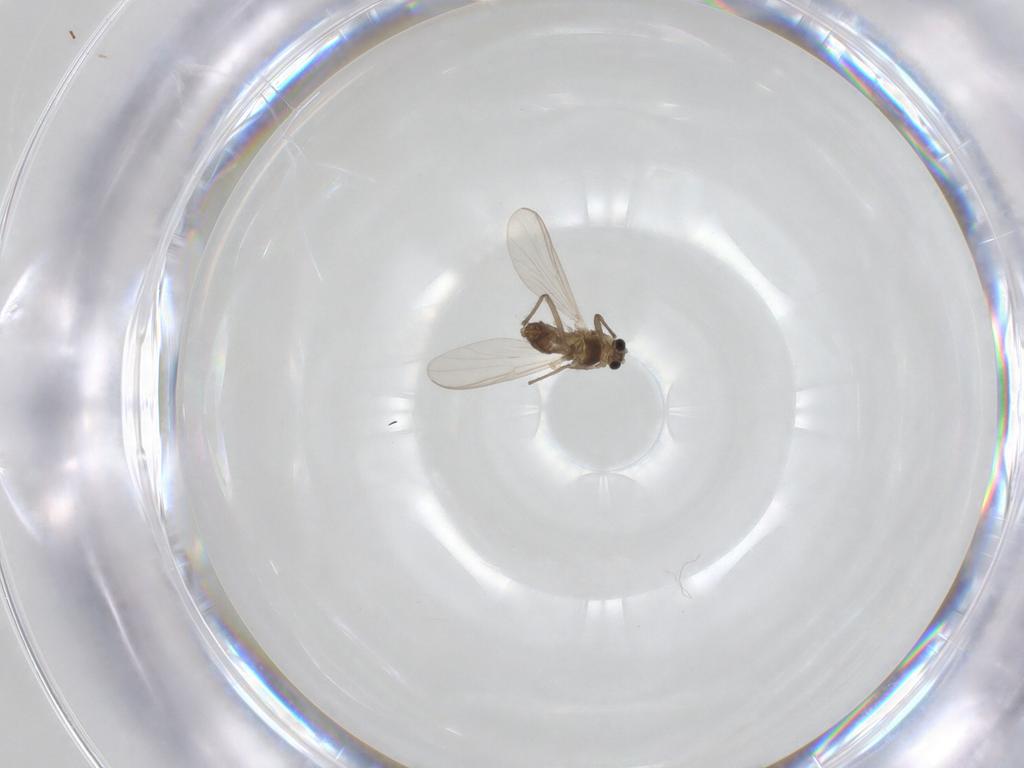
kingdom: Animalia
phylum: Arthropoda
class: Insecta
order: Diptera
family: Chironomidae
